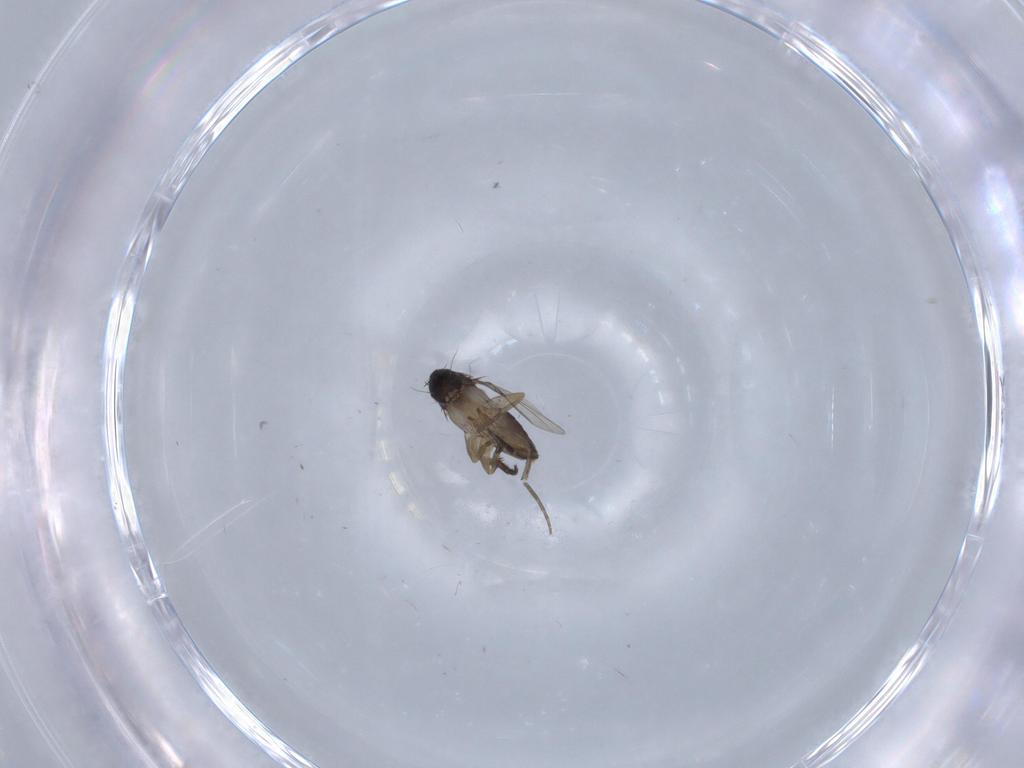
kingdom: Animalia
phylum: Arthropoda
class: Insecta
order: Diptera
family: Phoridae
